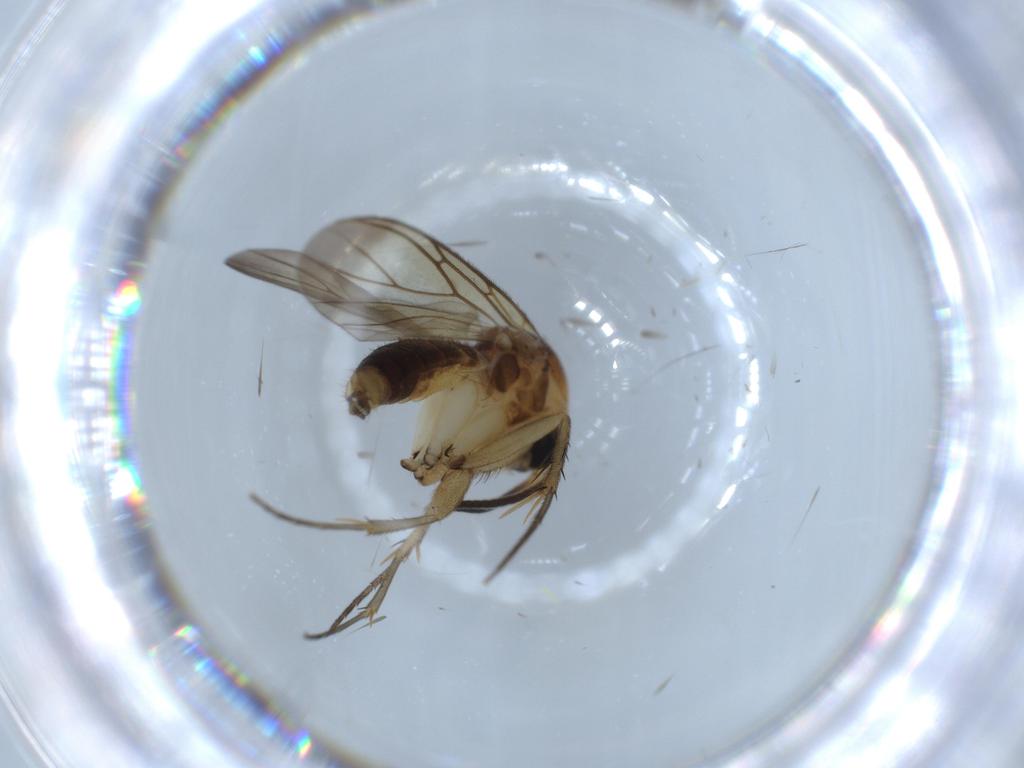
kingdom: Animalia
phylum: Arthropoda
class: Insecta
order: Diptera
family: Mycetophilidae
